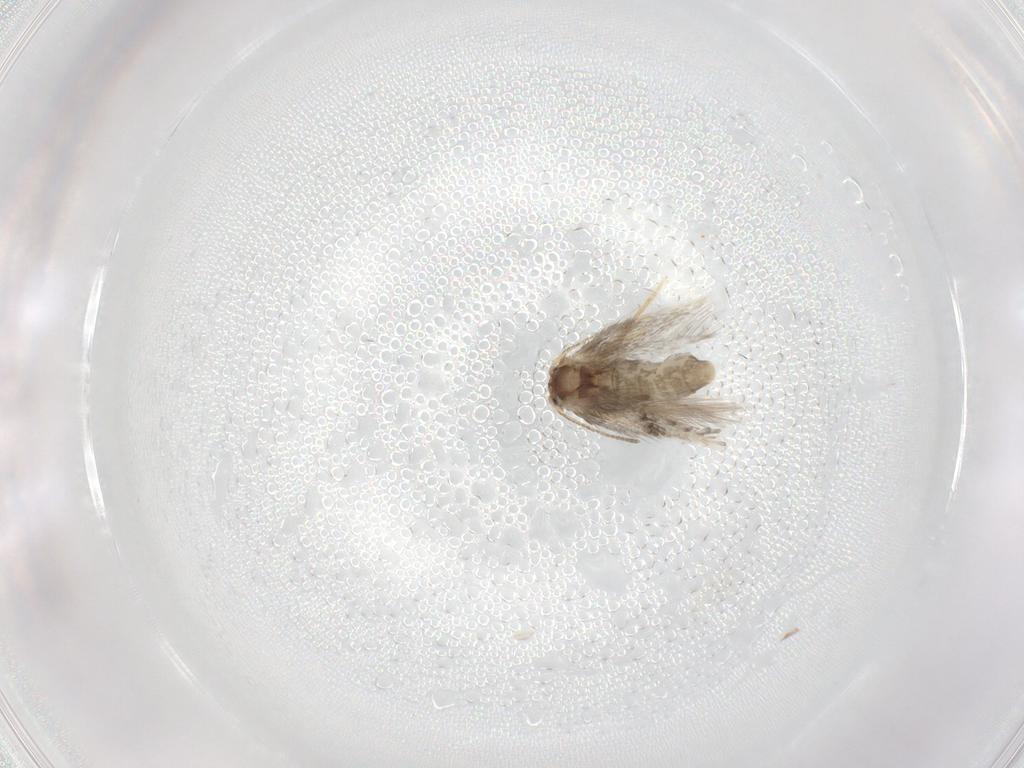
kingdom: Animalia
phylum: Arthropoda
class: Insecta
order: Lepidoptera
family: Nepticulidae
